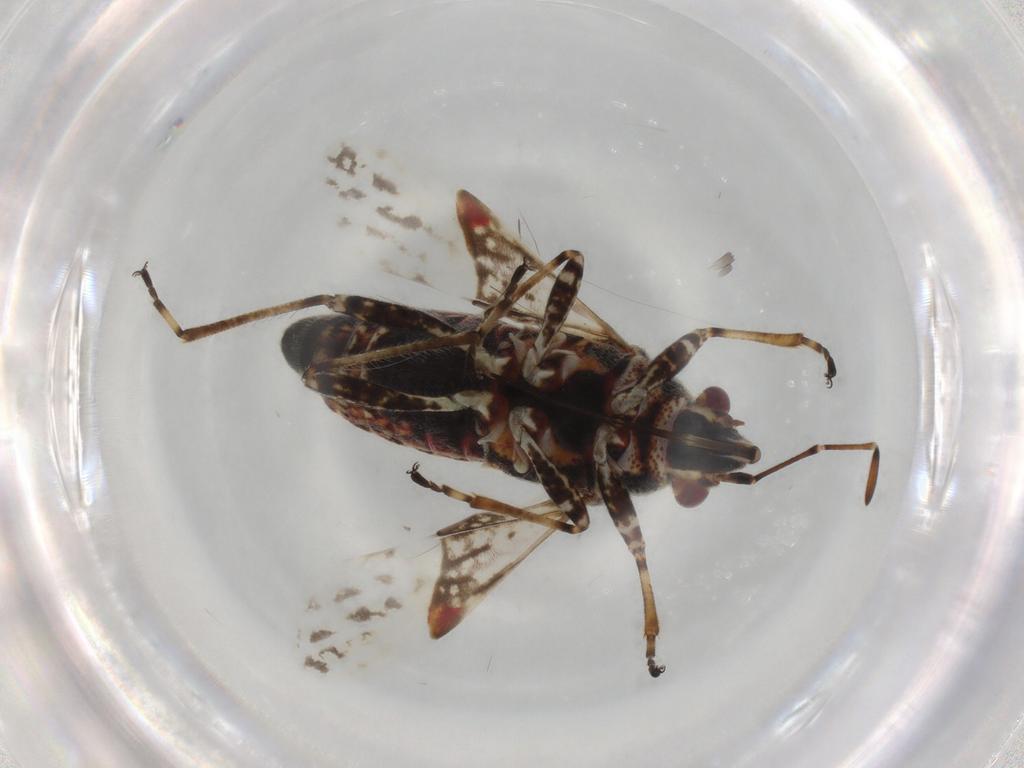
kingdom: Animalia
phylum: Arthropoda
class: Insecta
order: Hemiptera
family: Lygaeidae
